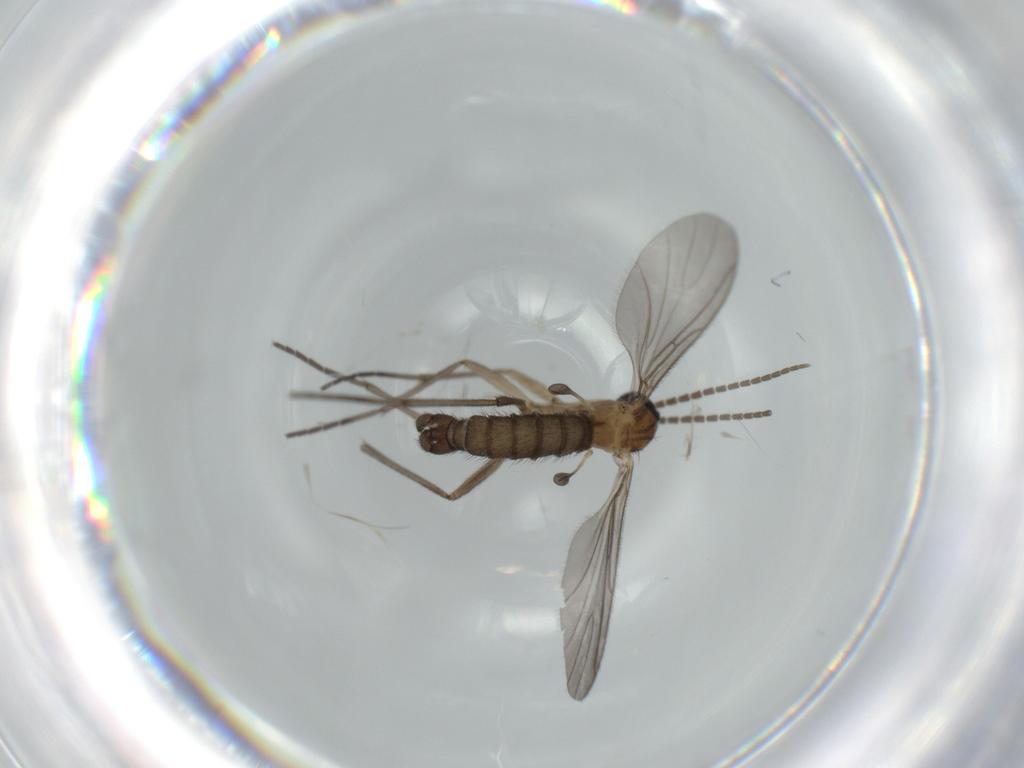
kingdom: Animalia
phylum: Arthropoda
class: Insecta
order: Diptera
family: Sciaridae
